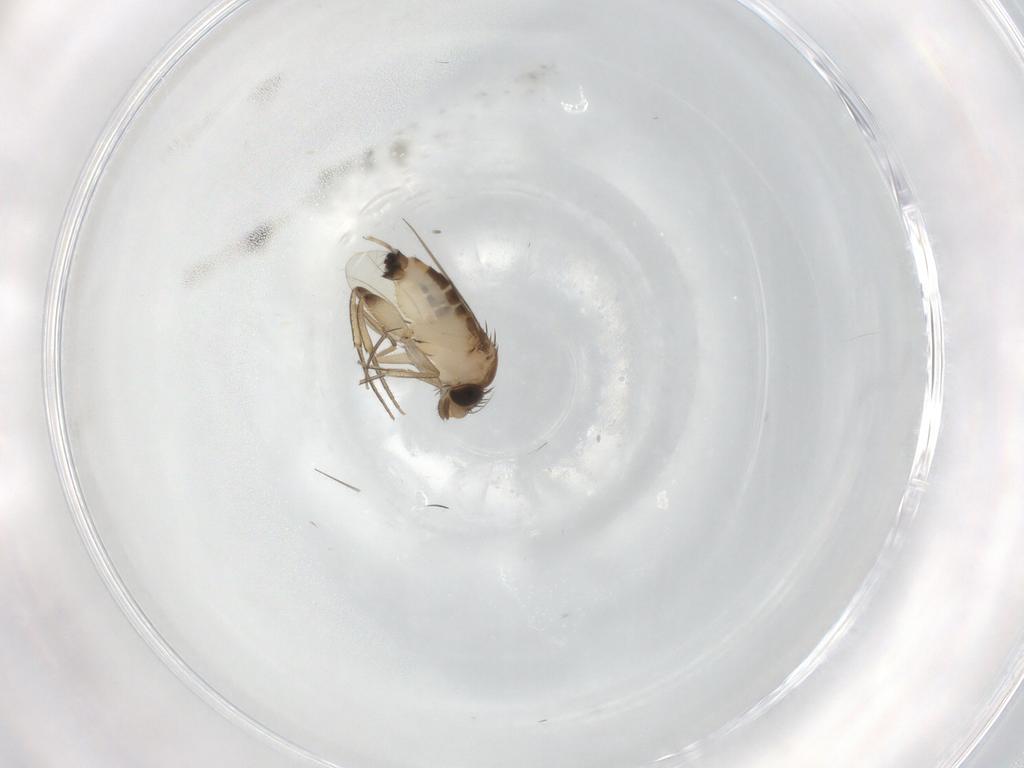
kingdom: Animalia
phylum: Arthropoda
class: Insecta
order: Diptera
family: Phoridae
